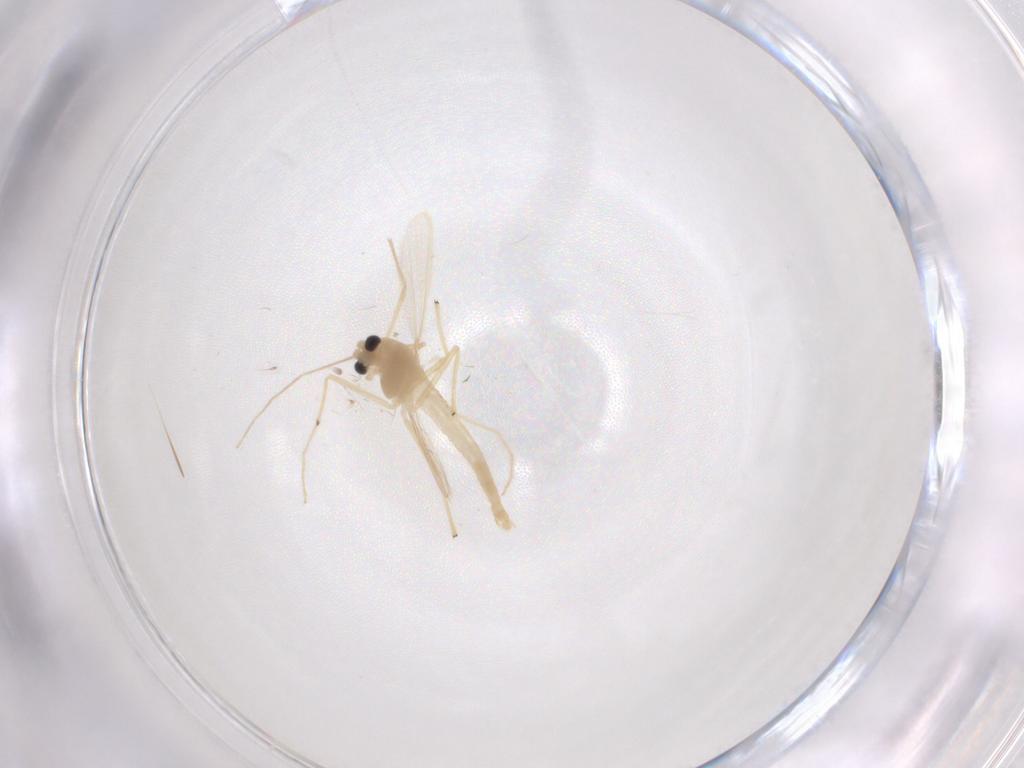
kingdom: Animalia
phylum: Arthropoda
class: Insecta
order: Diptera
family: Chironomidae
